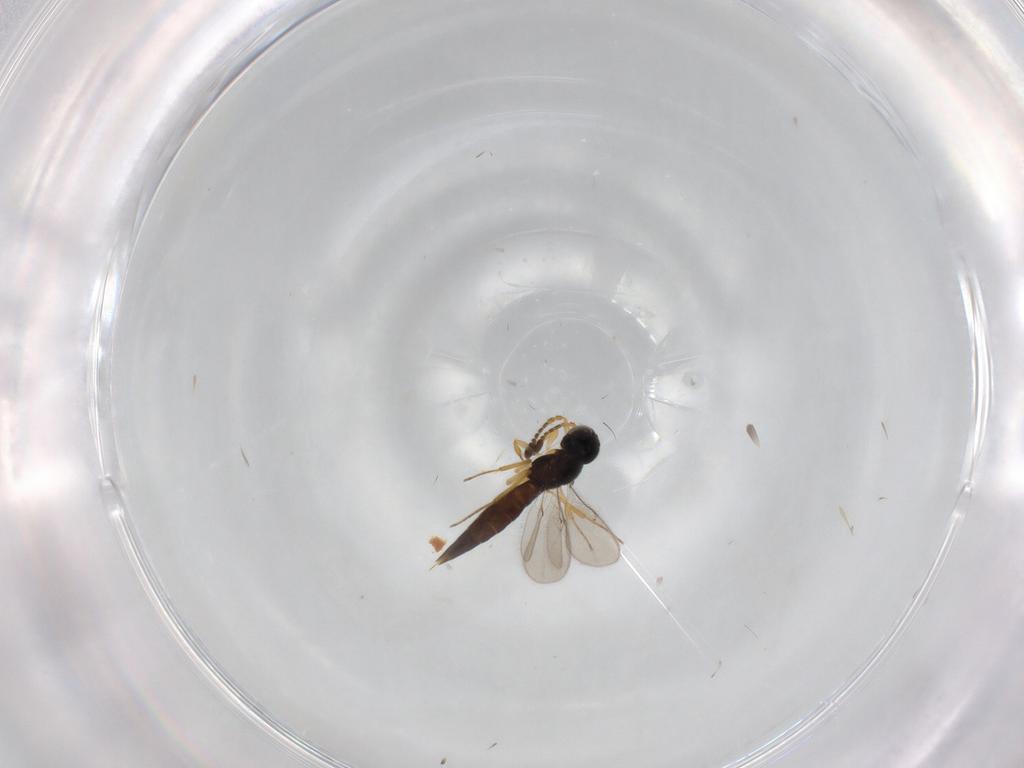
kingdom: Animalia
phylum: Arthropoda
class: Insecta
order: Hymenoptera
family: Scelionidae
